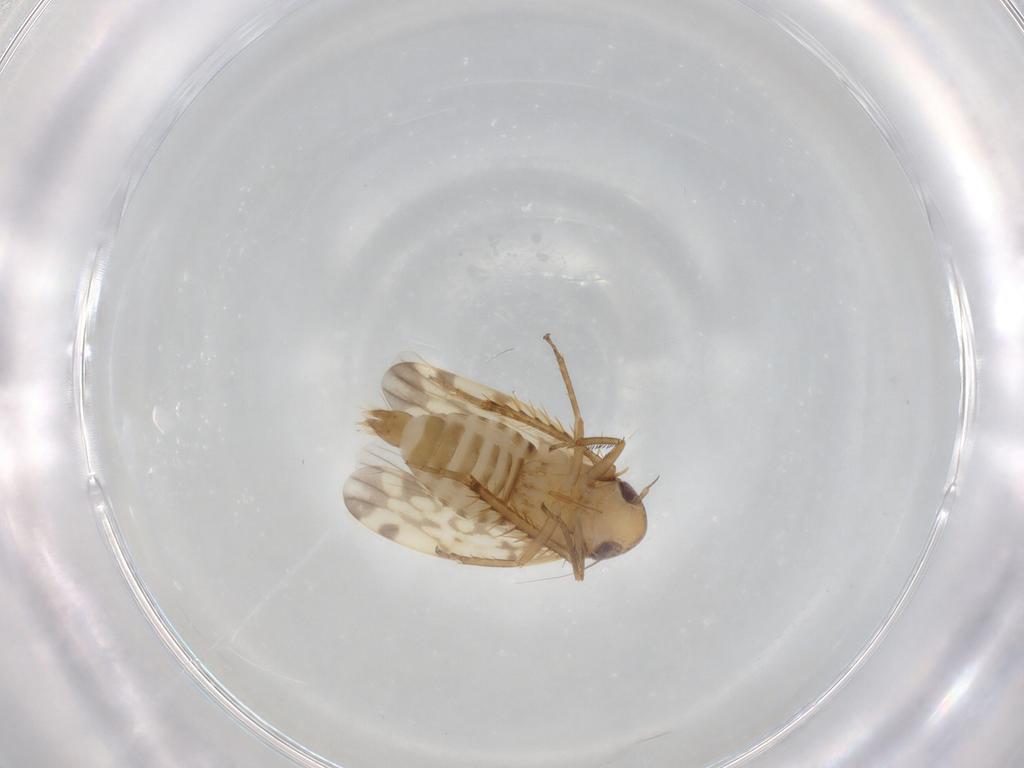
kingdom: Animalia
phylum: Arthropoda
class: Insecta
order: Hemiptera
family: Cicadellidae
